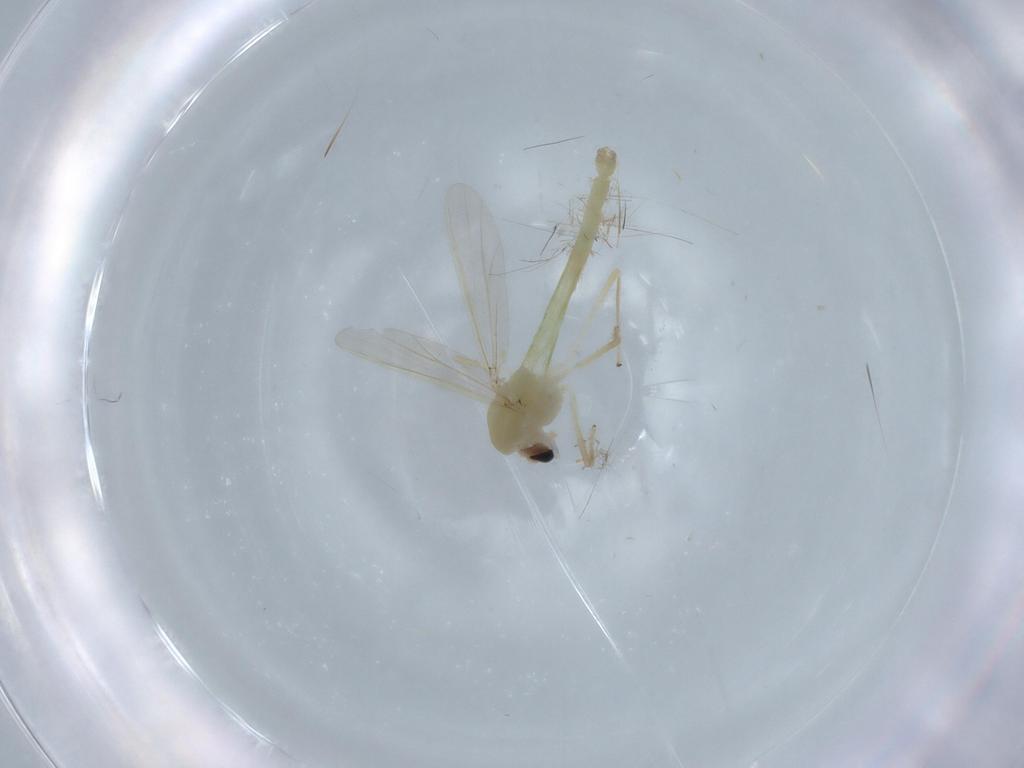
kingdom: Animalia
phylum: Arthropoda
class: Insecta
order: Diptera
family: Chironomidae
